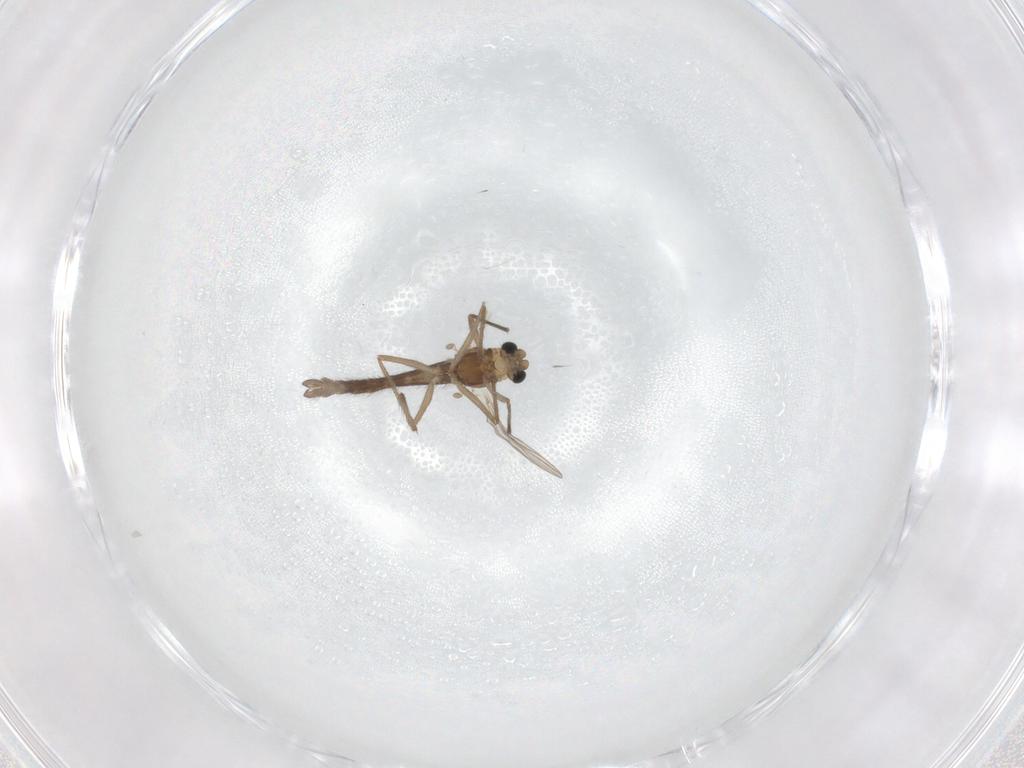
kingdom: Animalia
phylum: Arthropoda
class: Insecta
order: Diptera
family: Chironomidae
